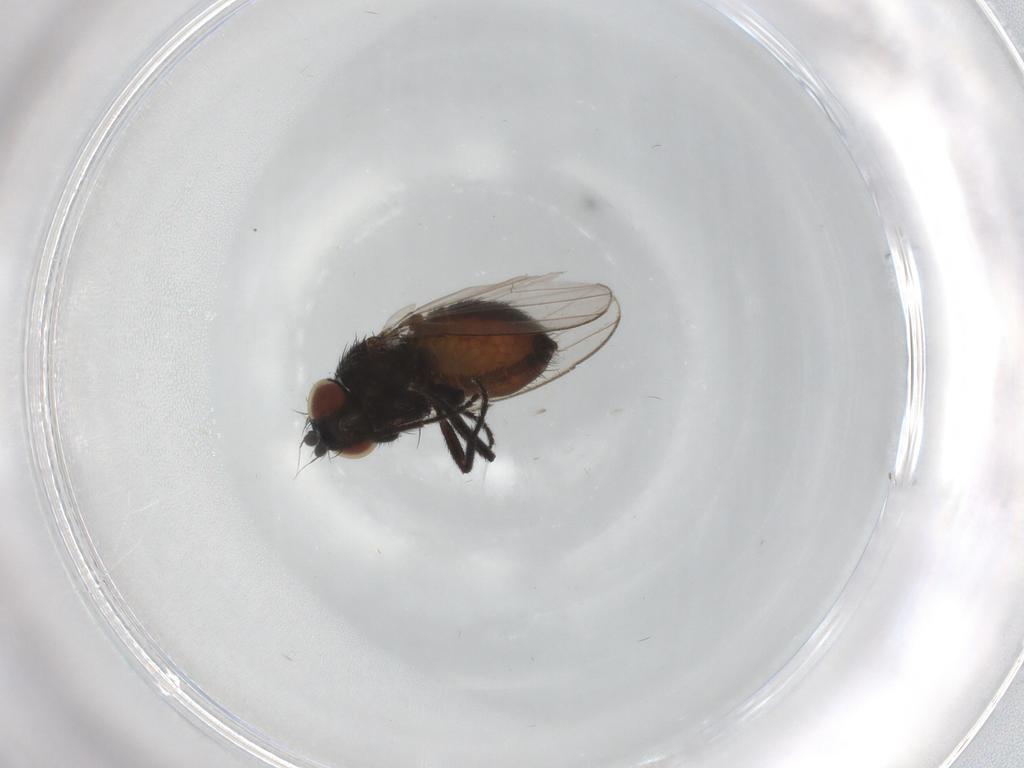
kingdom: Animalia
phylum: Arthropoda
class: Insecta
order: Diptera
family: Milichiidae
